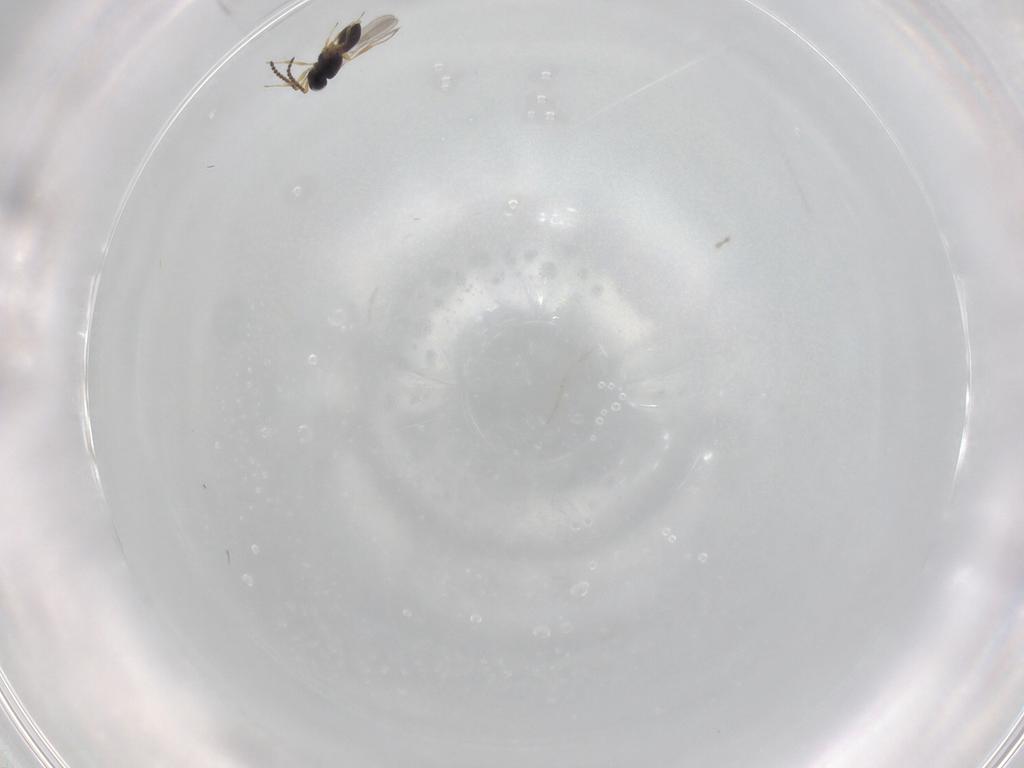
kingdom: Animalia
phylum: Arthropoda
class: Insecta
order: Hymenoptera
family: Scelionidae
